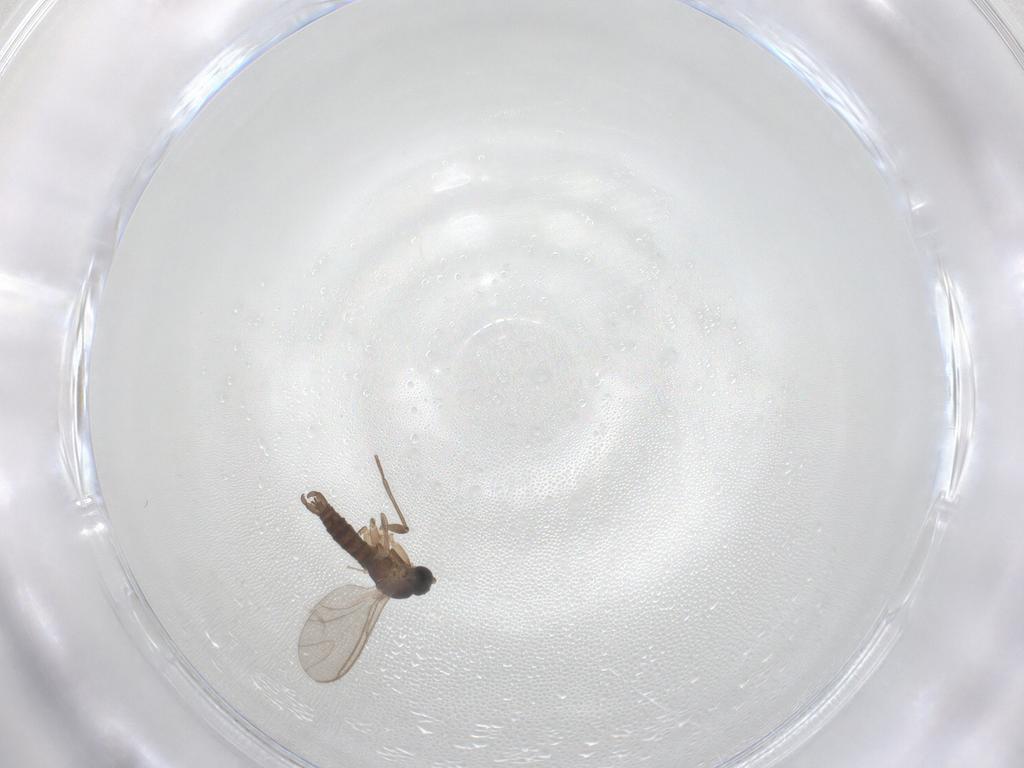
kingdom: Animalia
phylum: Arthropoda
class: Insecta
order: Diptera
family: Sciaridae
